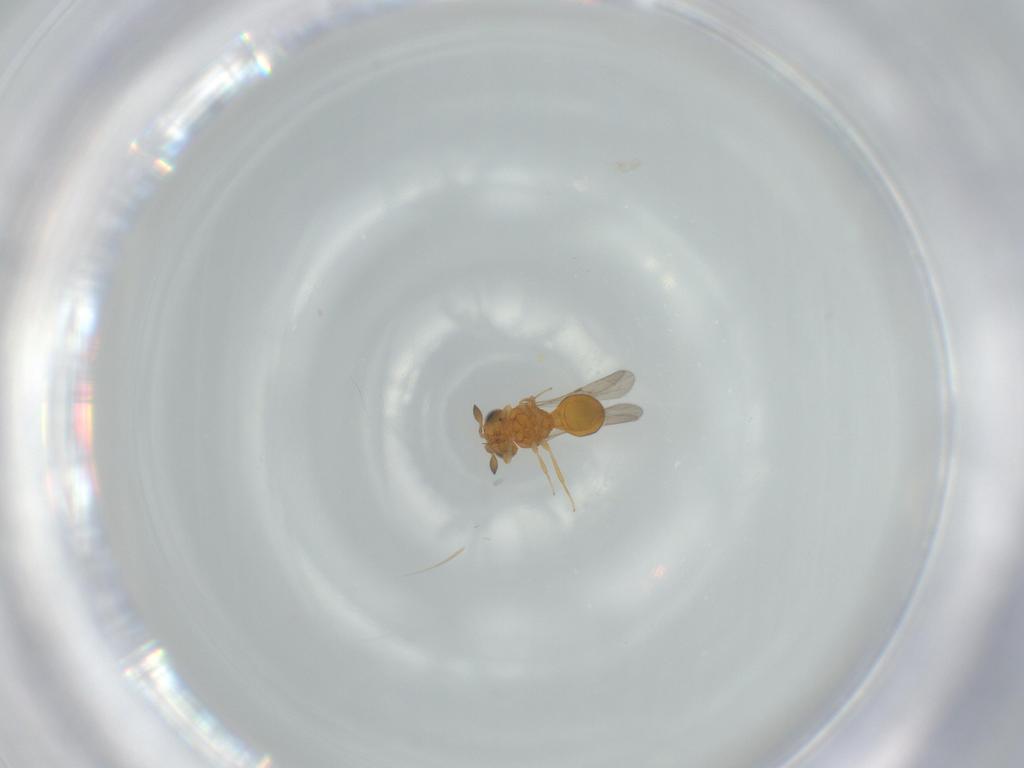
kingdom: Animalia
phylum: Arthropoda
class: Insecta
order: Hymenoptera
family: Scelionidae
